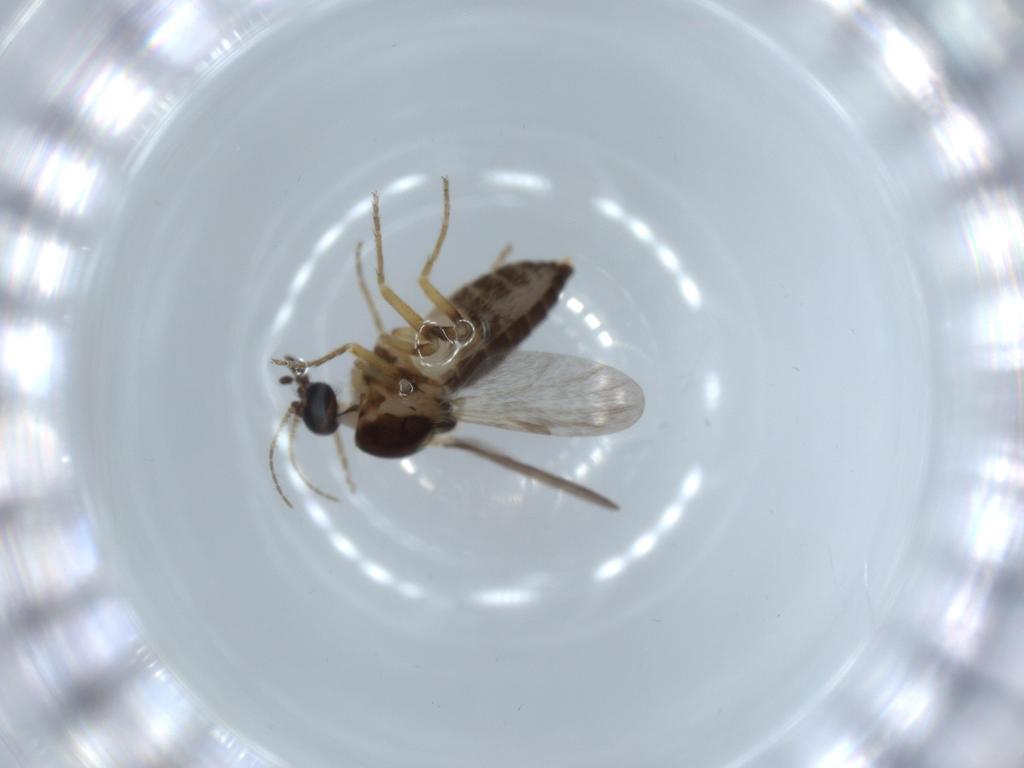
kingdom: Animalia
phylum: Arthropoda
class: Insecta
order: Diptera
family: Ceratopogonidae
